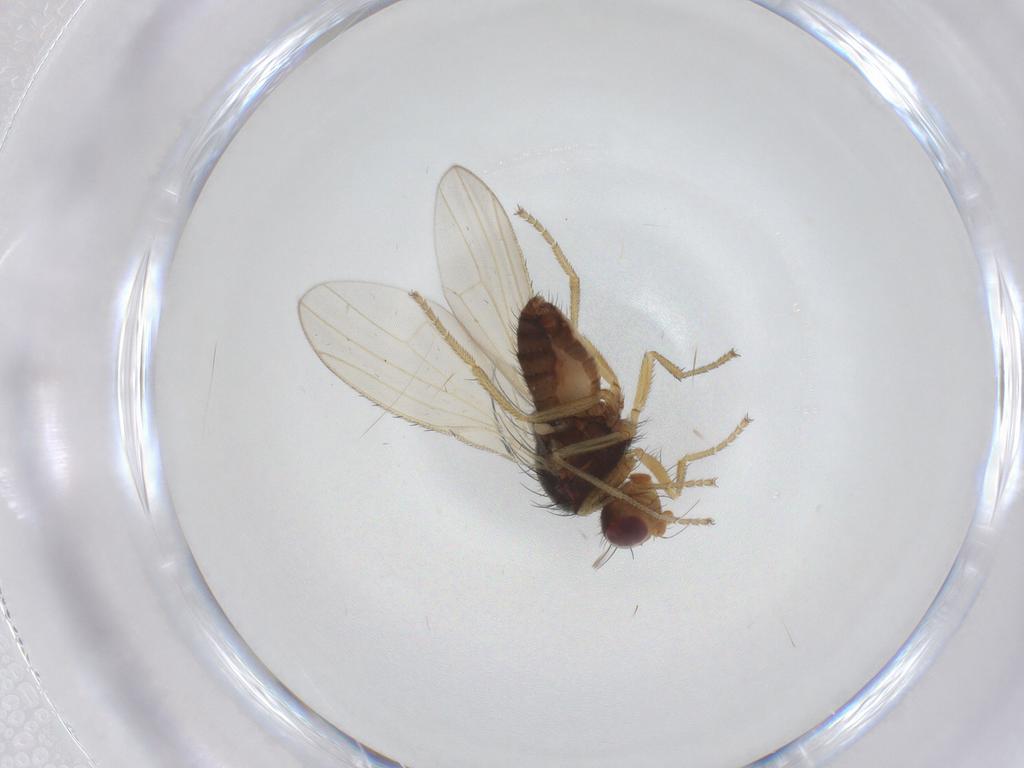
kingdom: Animalia
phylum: Arthropoda
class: Insecta
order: Diptera
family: Heleomyzidae
